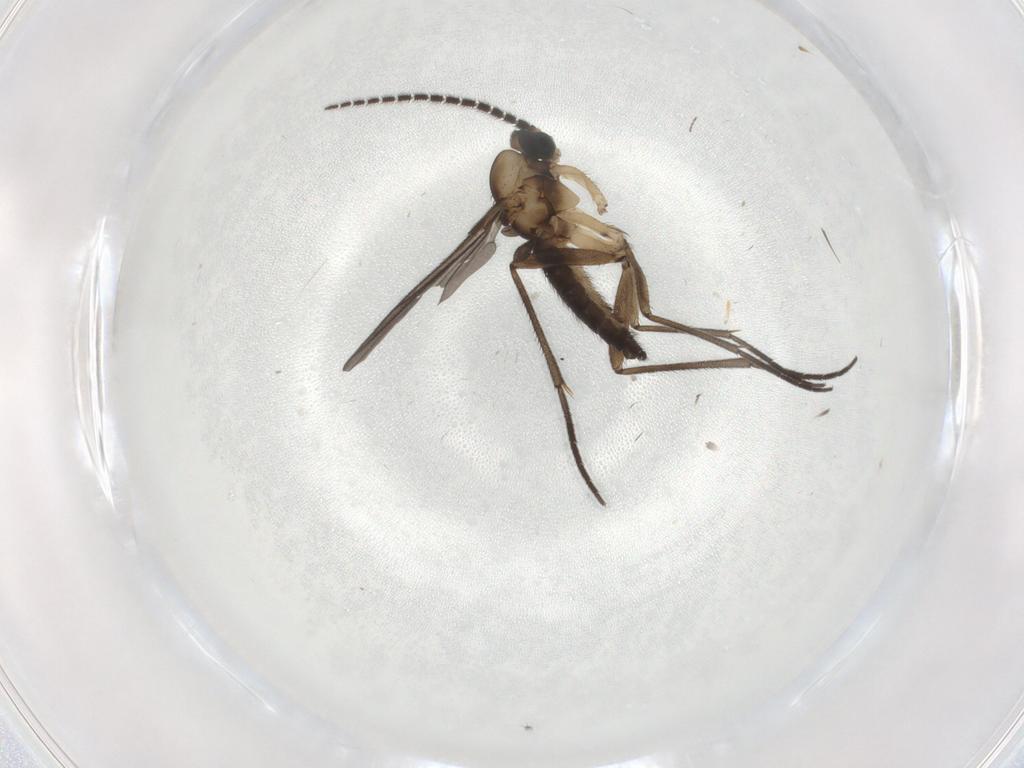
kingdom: Animalia
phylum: Arthropoda
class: Insecta
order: Diptera
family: Chironomidae
